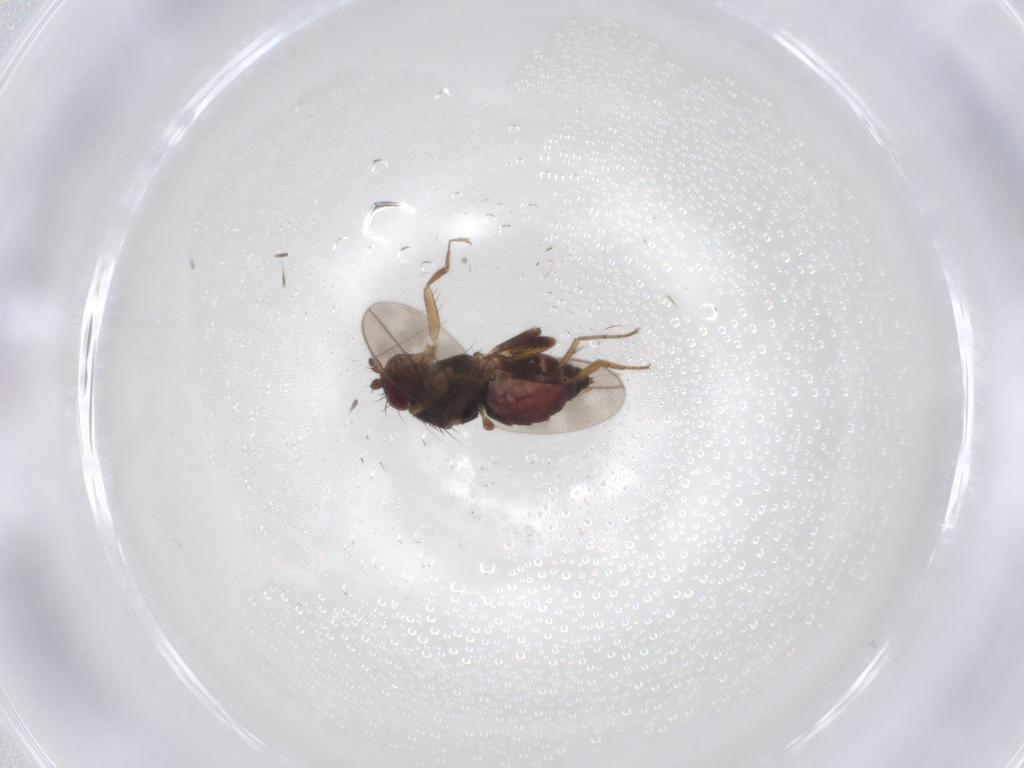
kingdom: Animalia
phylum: Arthropoda
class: Insecta
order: Diptera
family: Sphaeroceridae
